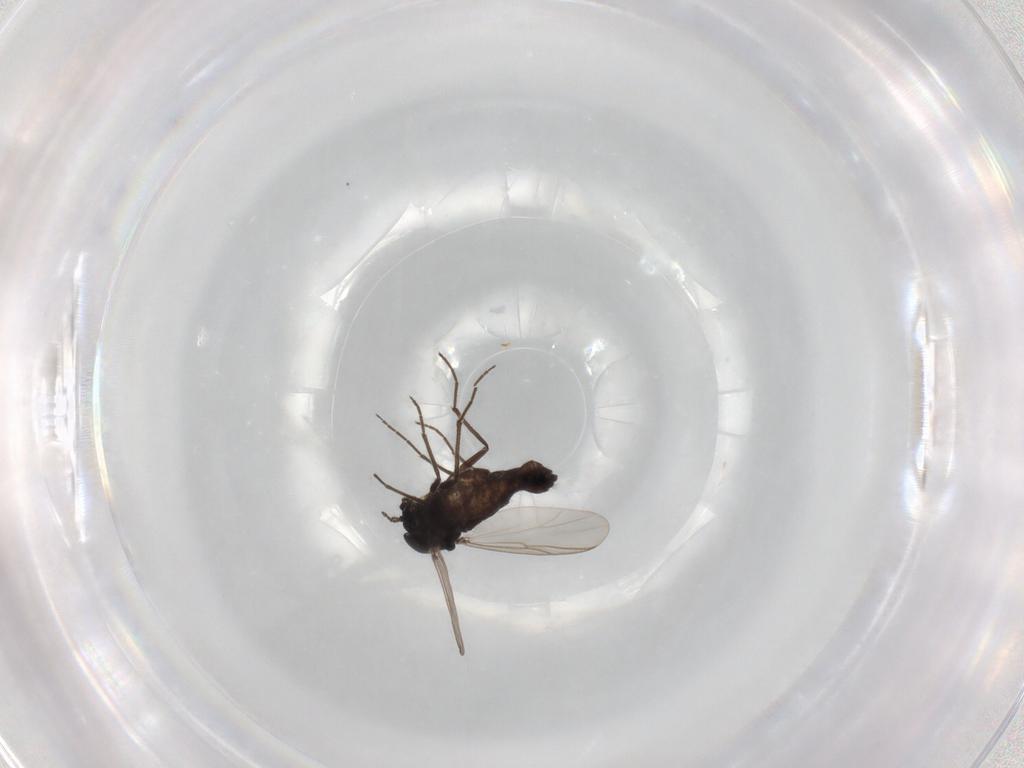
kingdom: Animalia
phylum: Arthropoda
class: Insecta
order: Diptera
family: Chironomidae
